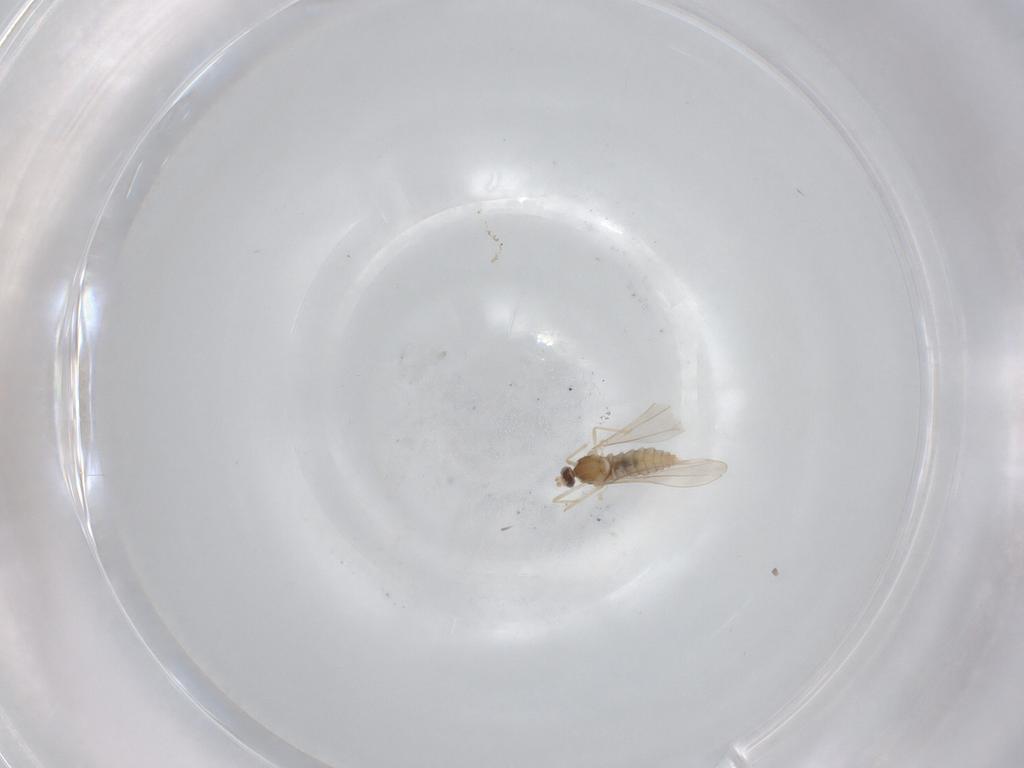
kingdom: Animalia
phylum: Arthropoda
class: Insecta
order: Diptera
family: Cecidomyiidae
